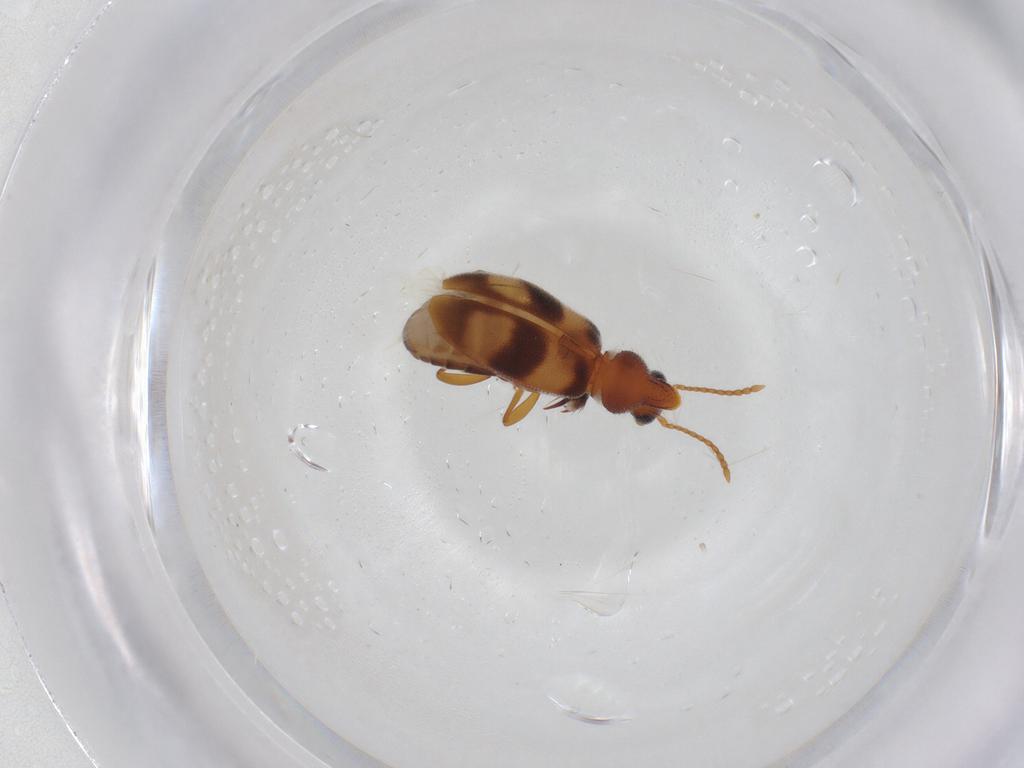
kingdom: Animalia
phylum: Arthropoda
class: Insecta
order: Coleoptera
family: Anthicidae
